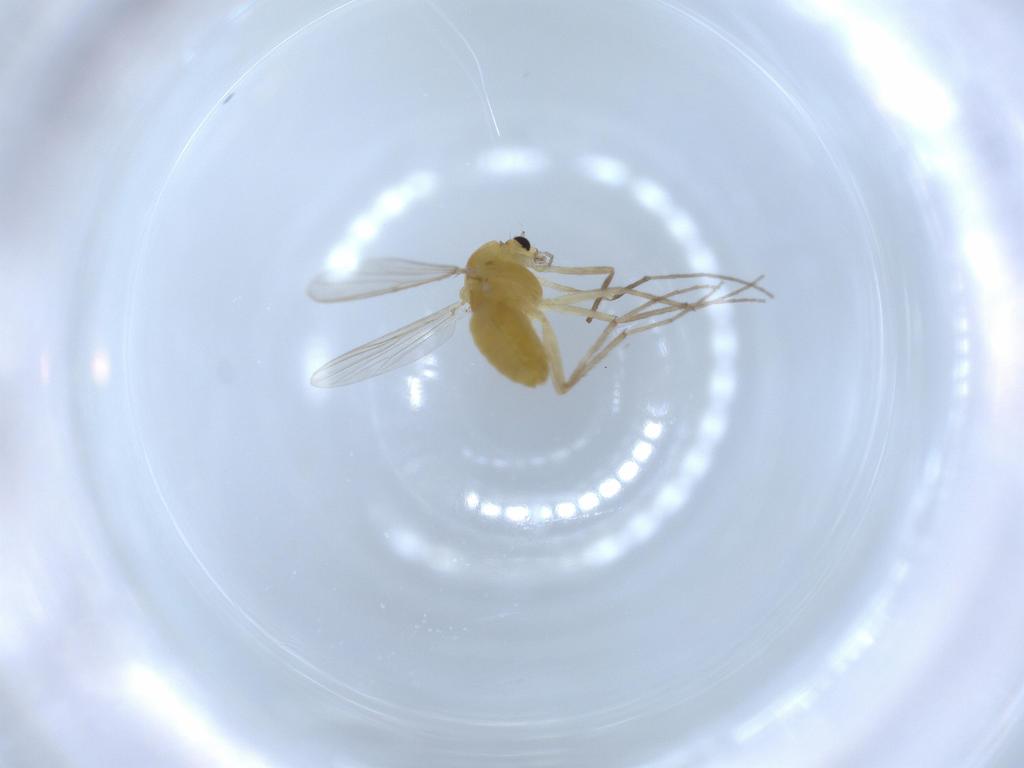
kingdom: Animalia
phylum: Arthropoda
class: Insecta
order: Diptera
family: Chironomidae
